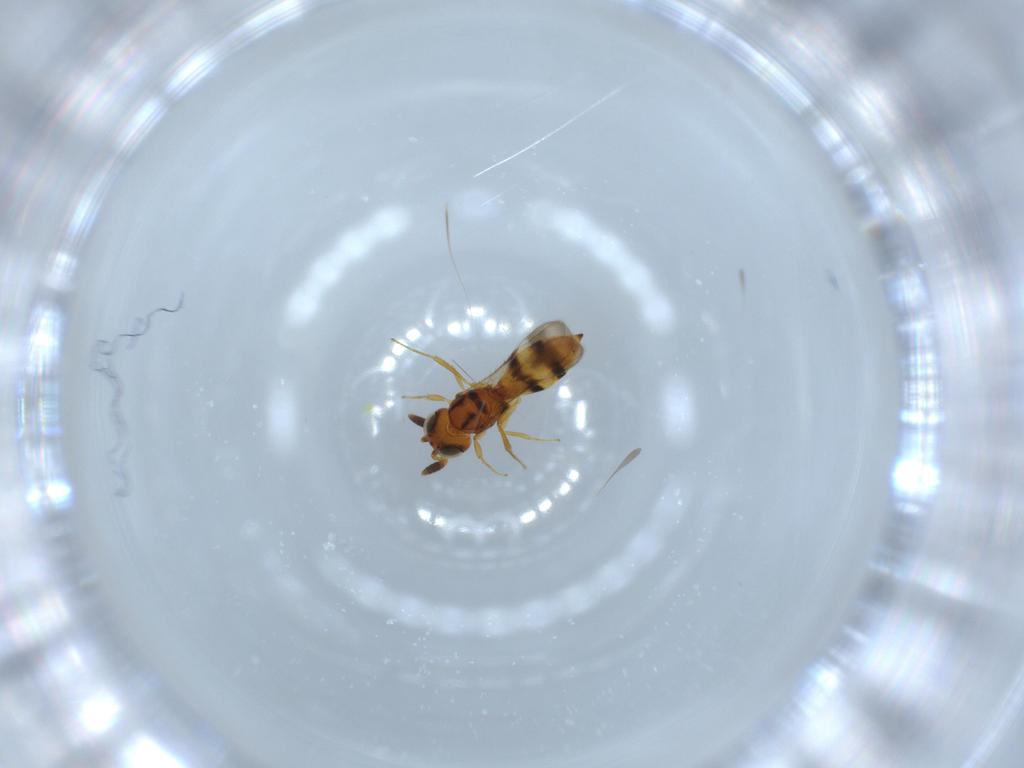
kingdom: Animalia
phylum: Arthropoda
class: Insecta
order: Hymenoptera
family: Scelionidae
